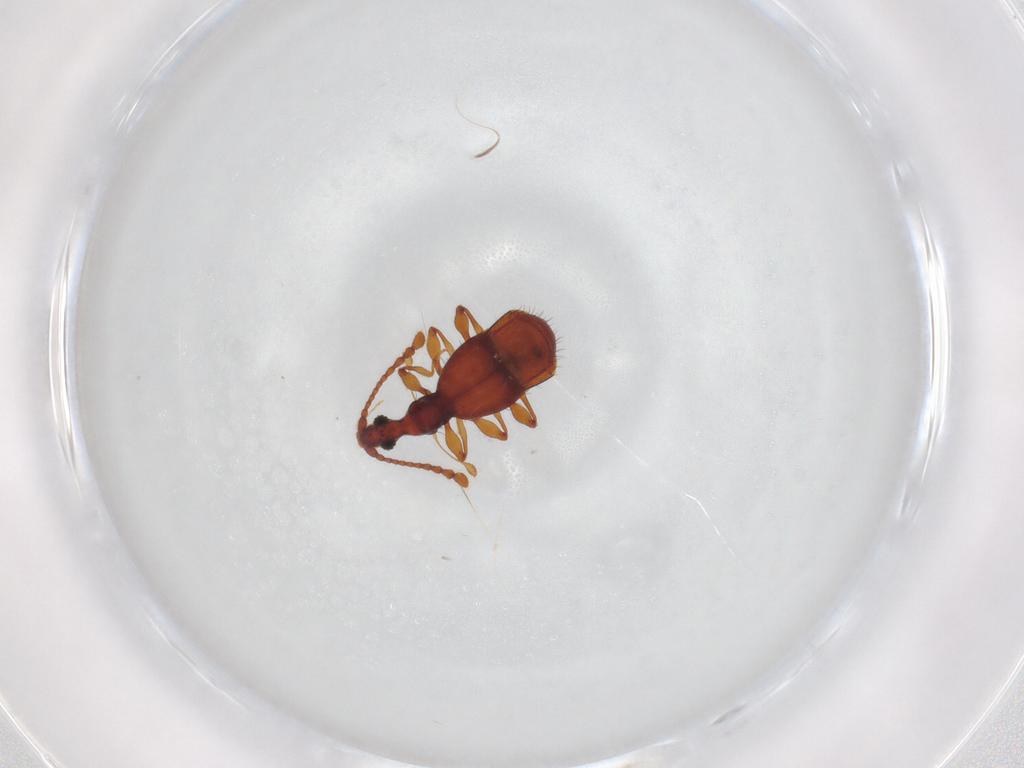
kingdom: Animalia
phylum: Arthropoda
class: Insecta
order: Coleoptera
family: Staphylinidae
